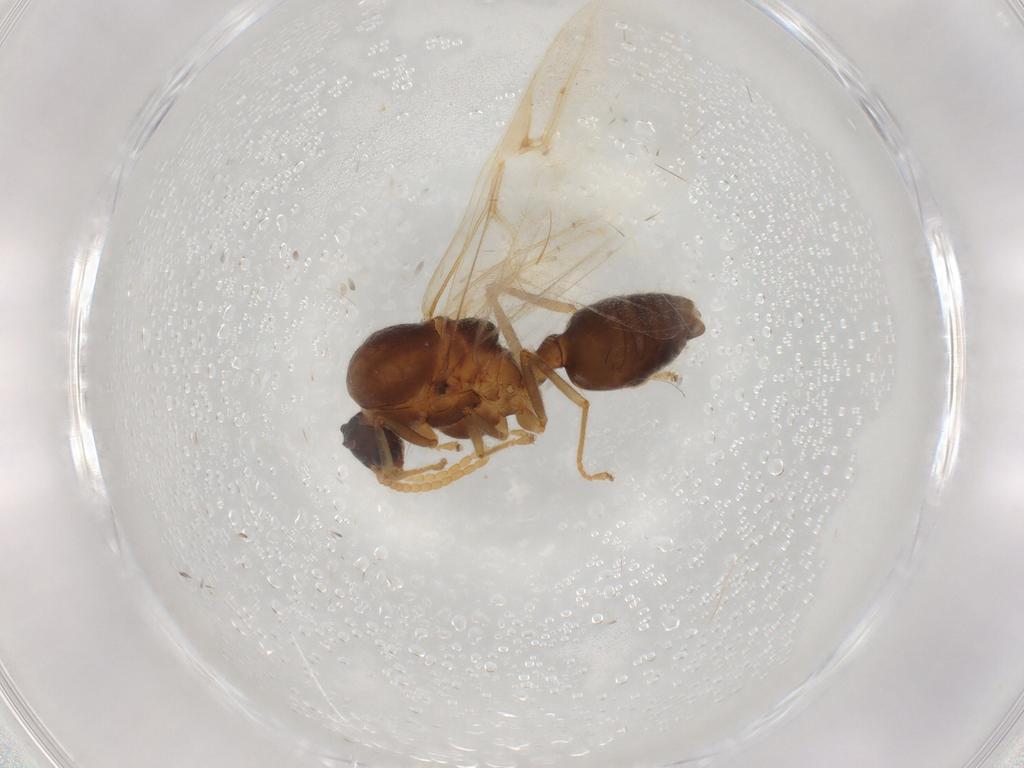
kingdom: Animalia
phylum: Arthropoda
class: Insecta
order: Hymenoptera
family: Formicidae
